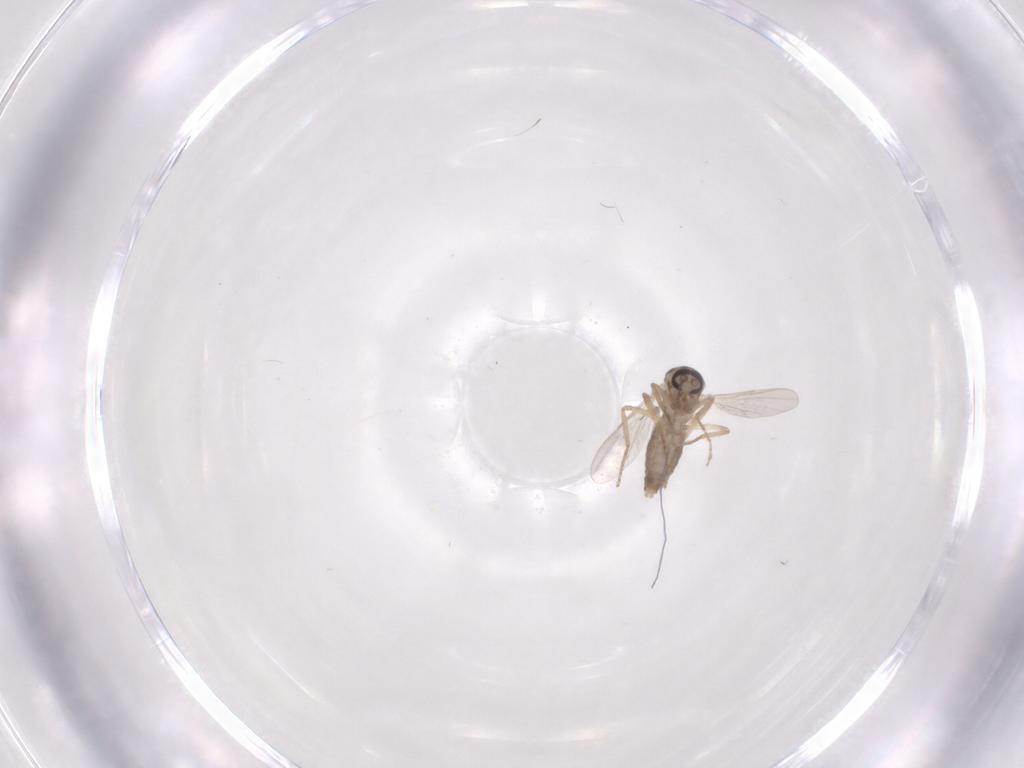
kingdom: Animalia
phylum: Arthropoda
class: Insecta
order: Diptera
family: Ceratopogonidae
